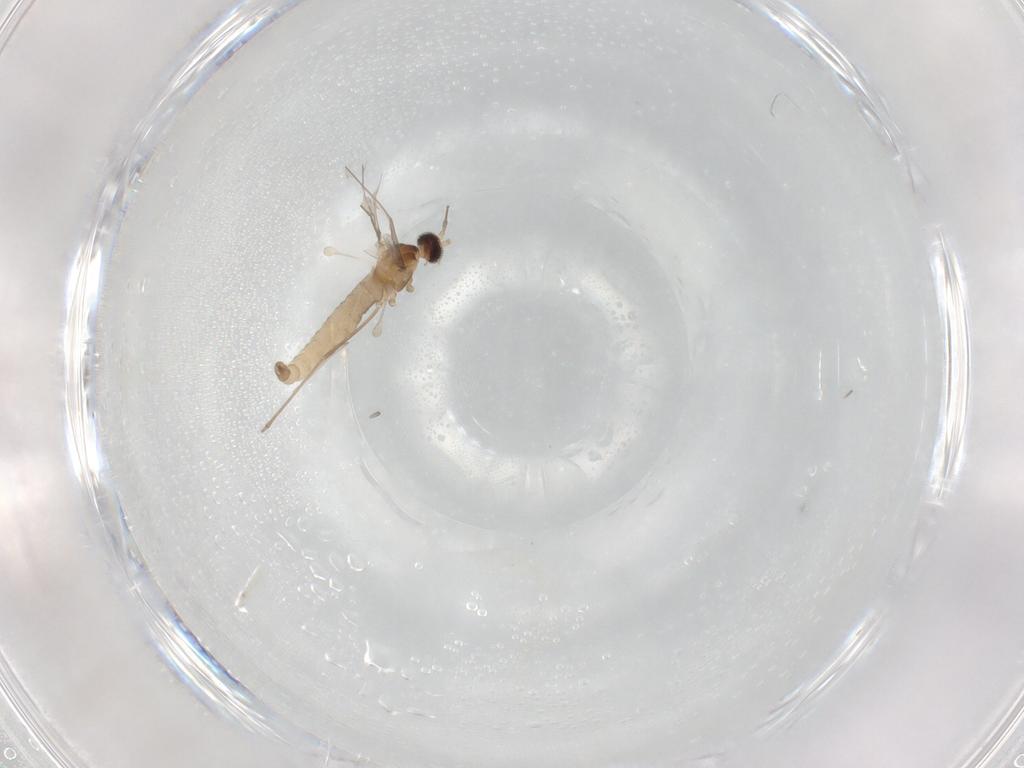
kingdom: Animalia
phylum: Arthropoda
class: Insecta
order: Diptera
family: Cecidomyiidae
